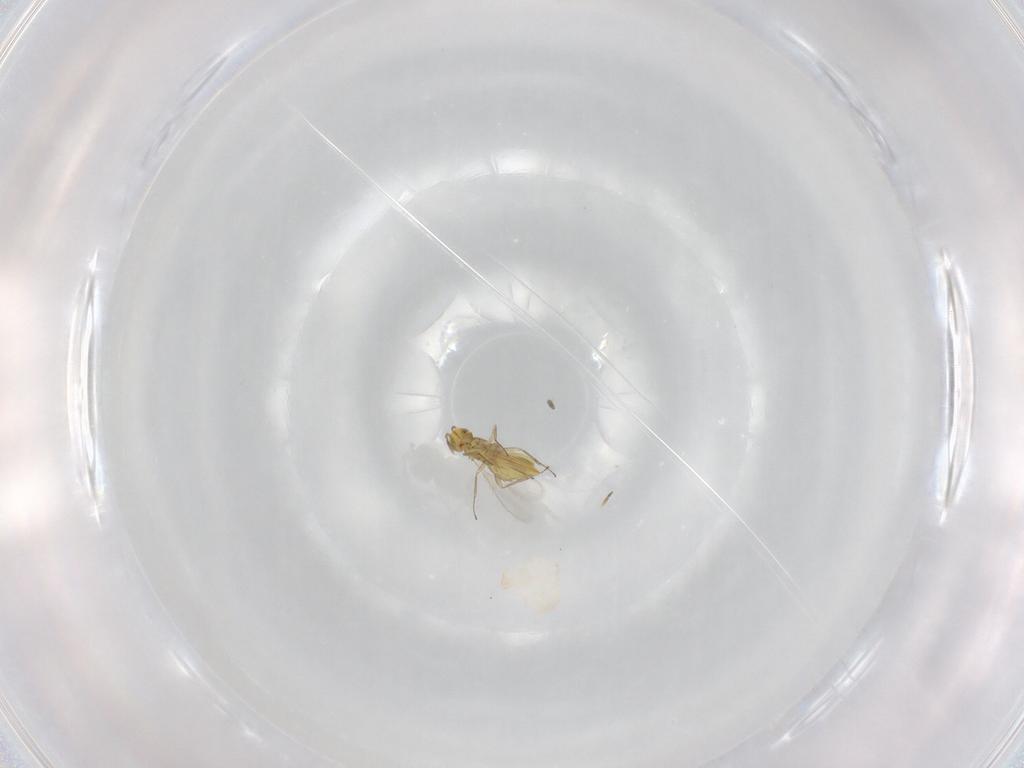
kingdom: Animalia
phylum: Arthropoda
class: Insecta
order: Hymenoptera
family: Aphelinidae
